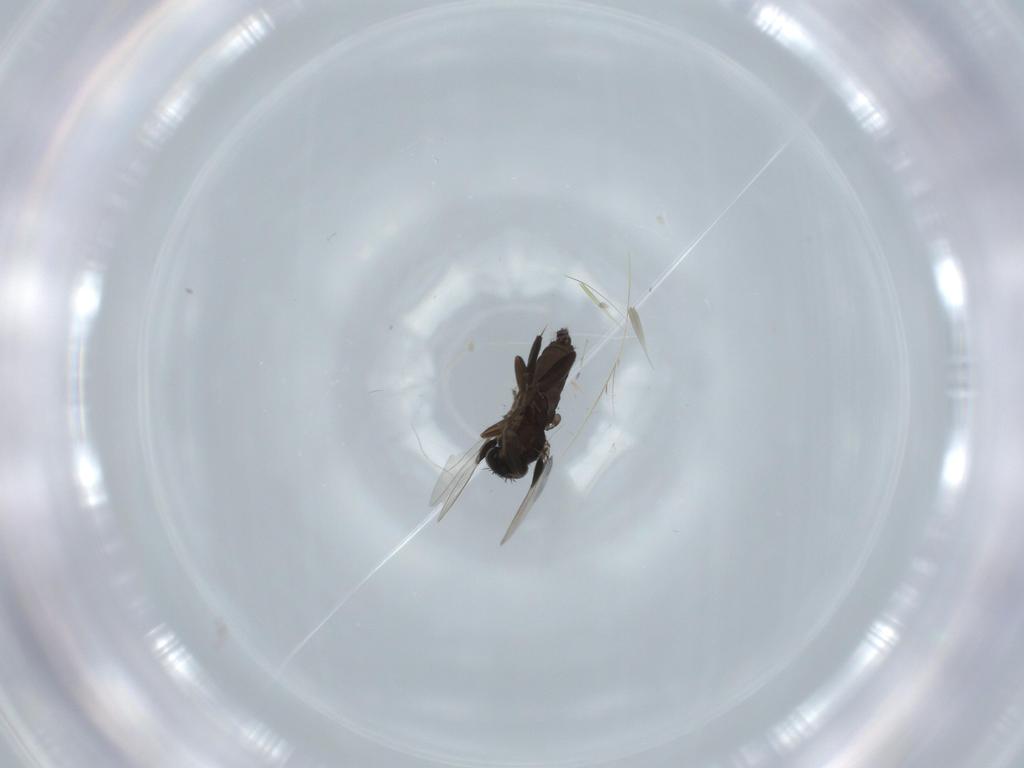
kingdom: Animalia
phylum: Arthropoda
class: Insecta
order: Diptera
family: Phoridae
